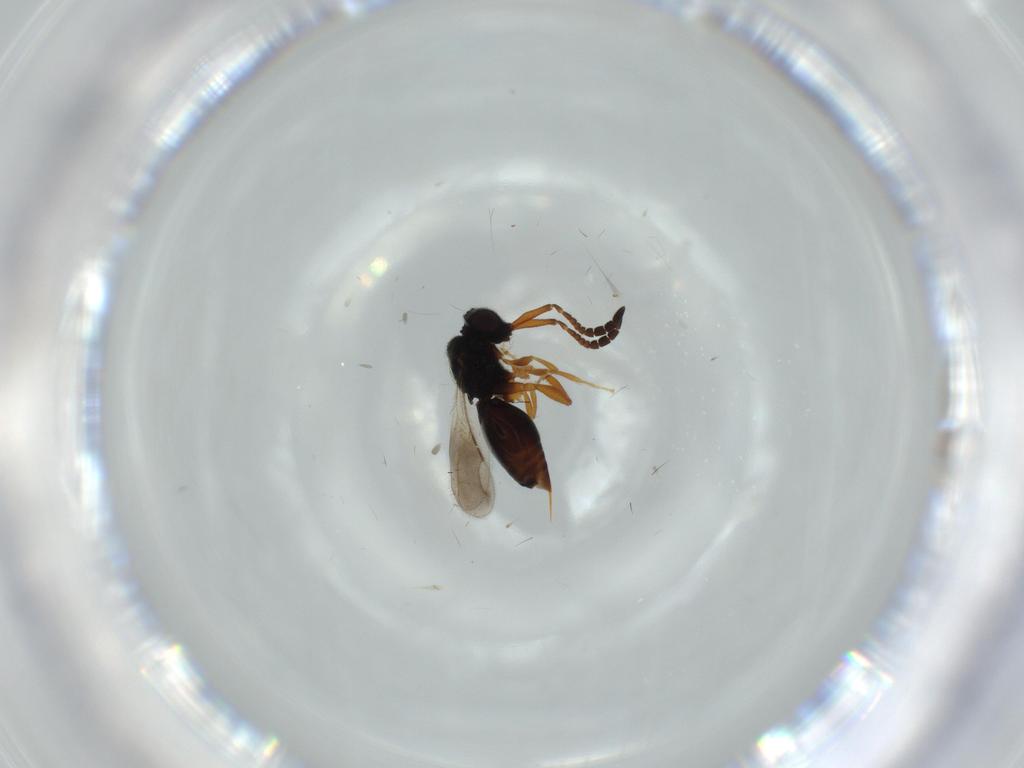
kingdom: Animalia
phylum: Arthropoda
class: Insecta
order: Hymenoptera
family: Ceraphronidae
